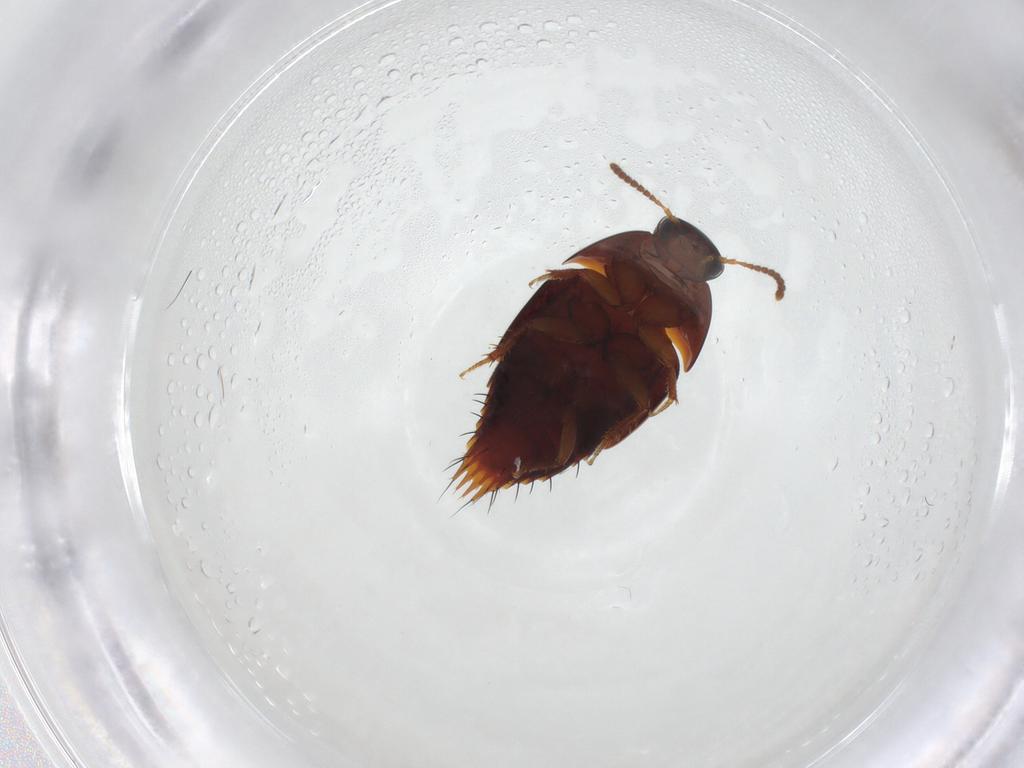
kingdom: Animalia
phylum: Arthropoda
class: Insecta
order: Coleoptera
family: Staphylinidae
